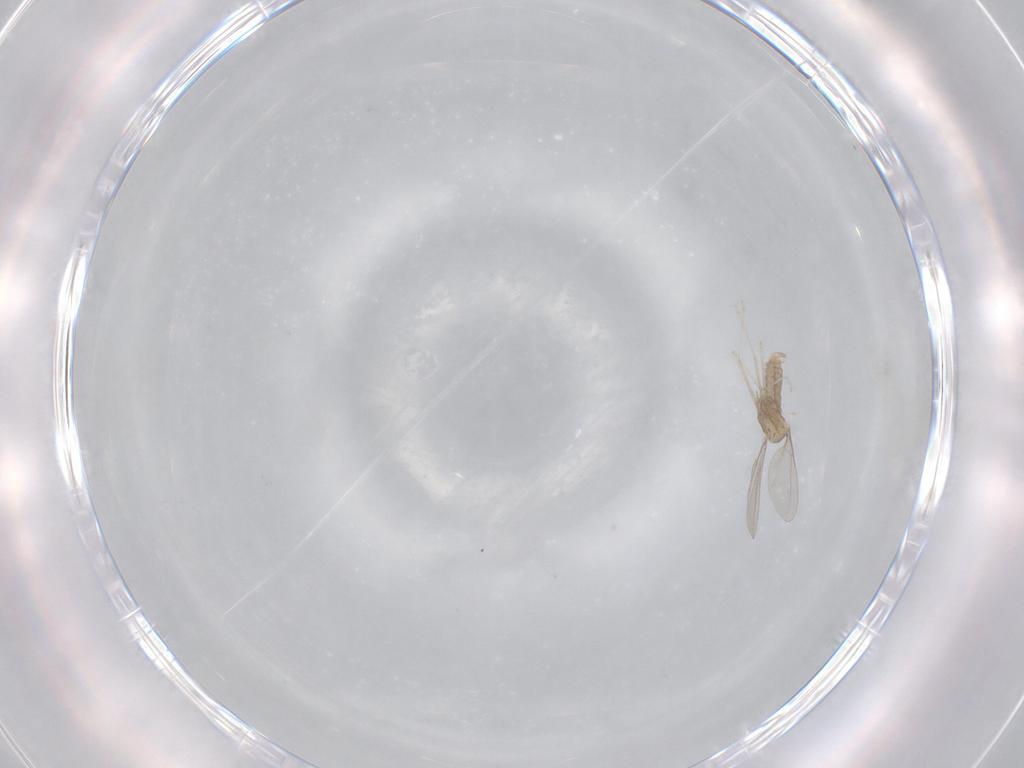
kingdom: Animalia
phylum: Arthropoda
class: Insecta
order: Diptera
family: Cecidomyiidae
